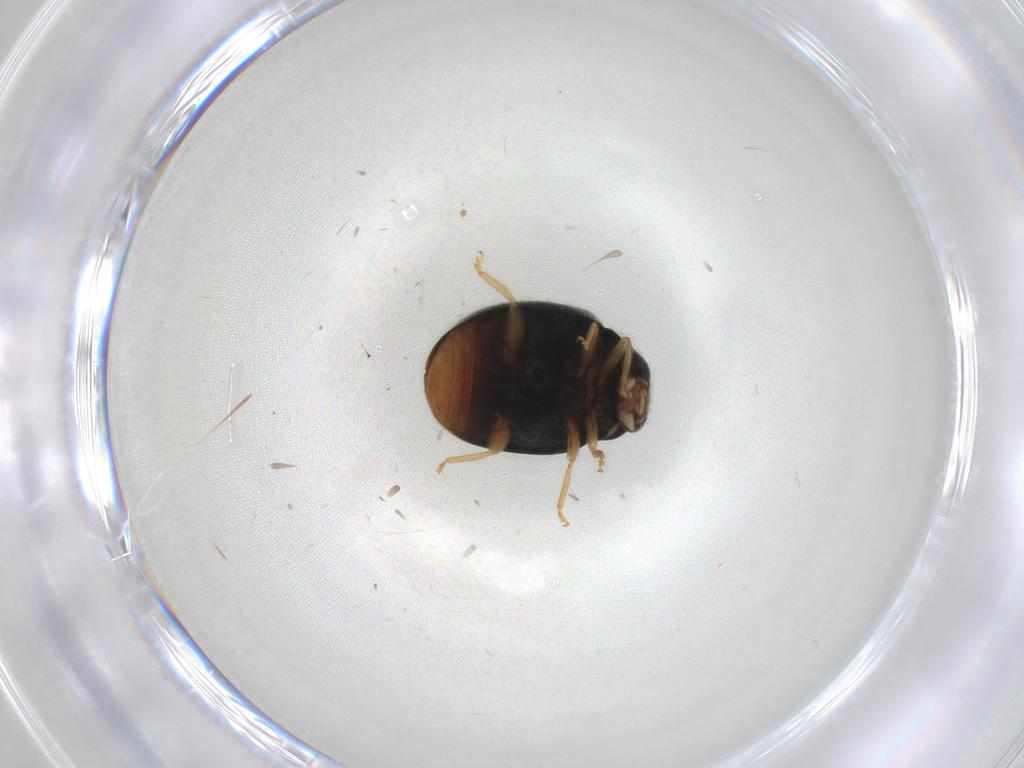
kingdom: Animalia
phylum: Arthropoda
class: Insecta
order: Coleoptera
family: Coccinellidae
